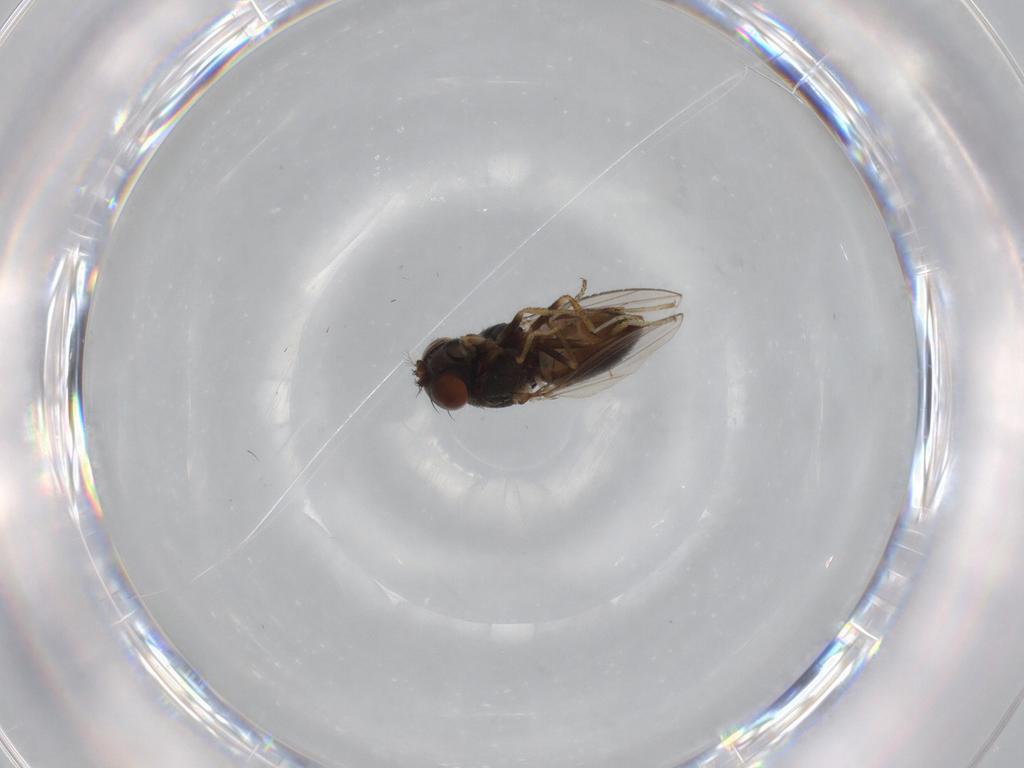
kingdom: Animalia
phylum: Arthropoda
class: Insecta
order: Diptera
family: Ephydridae
